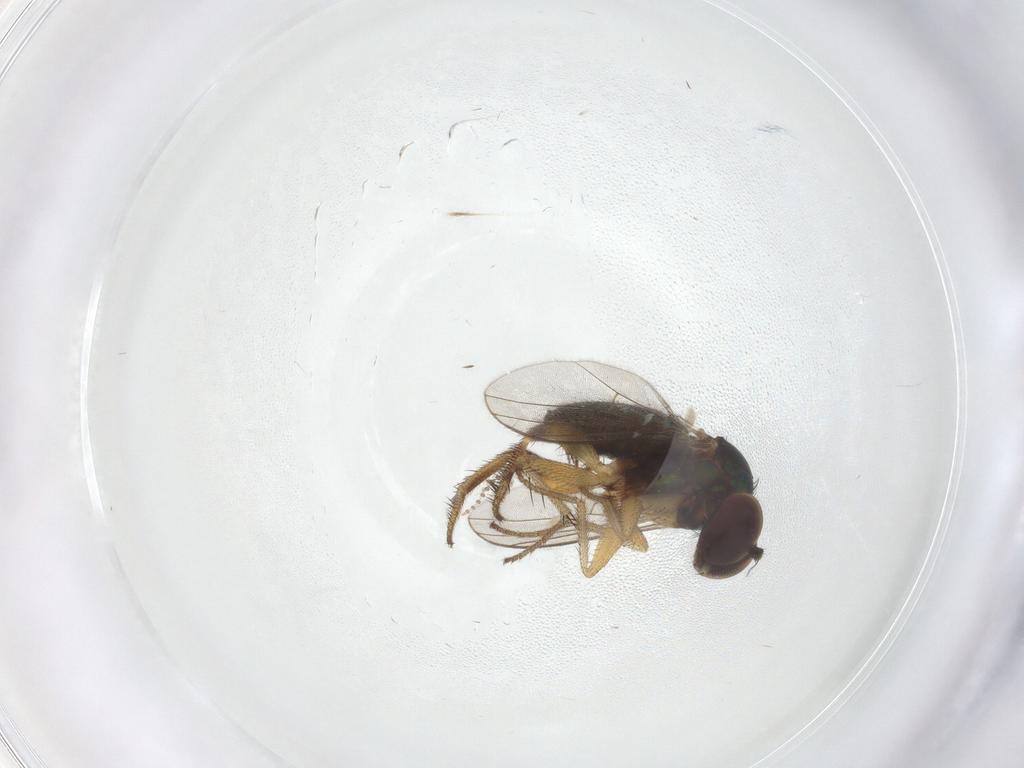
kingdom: Animalia
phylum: Arthropoda
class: Insecta
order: Diptera
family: Dolichopodidae
